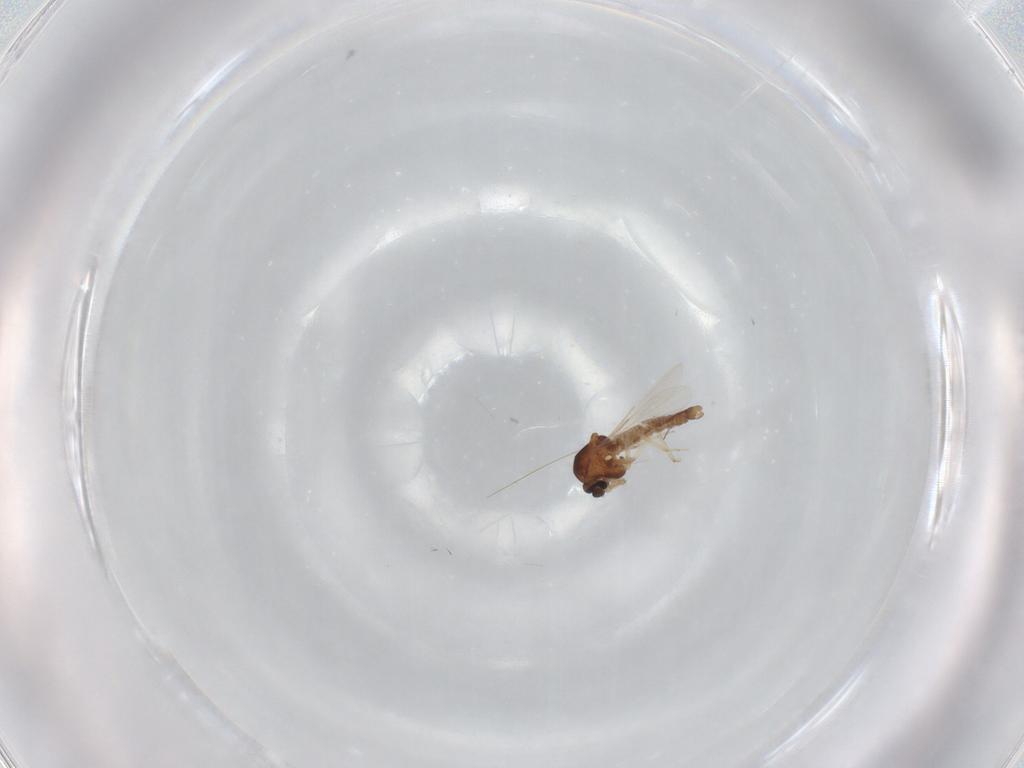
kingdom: Animalia
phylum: Arthropoda
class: Insecta
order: Diptera
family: Ceratopogonidae
